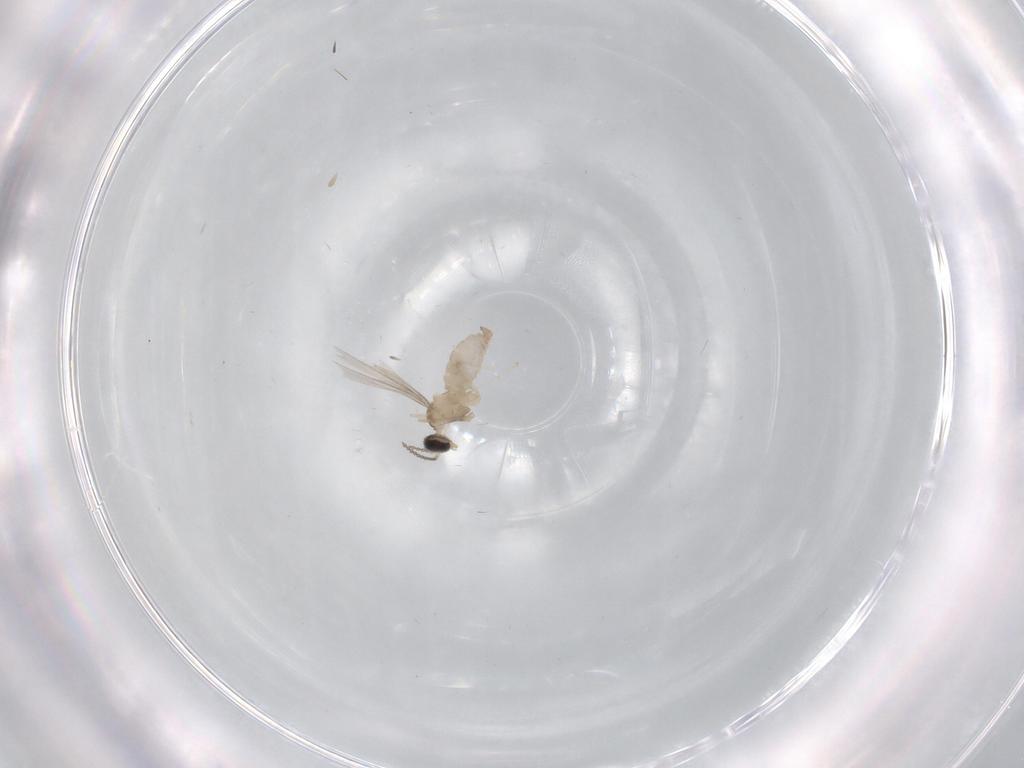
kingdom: Animalia
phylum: Arthropoda
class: Insecta
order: Diptera
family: Cecidomyiidae
